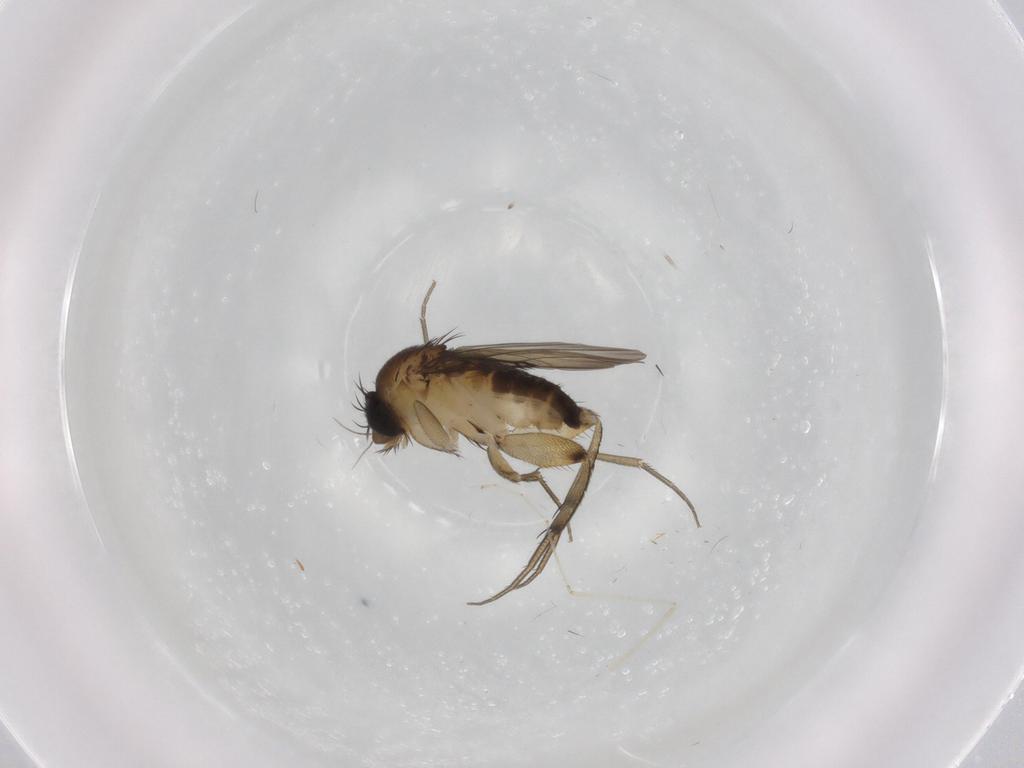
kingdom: Animalia
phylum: Arthropoda
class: Insecta
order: Diptera
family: Phoridae
